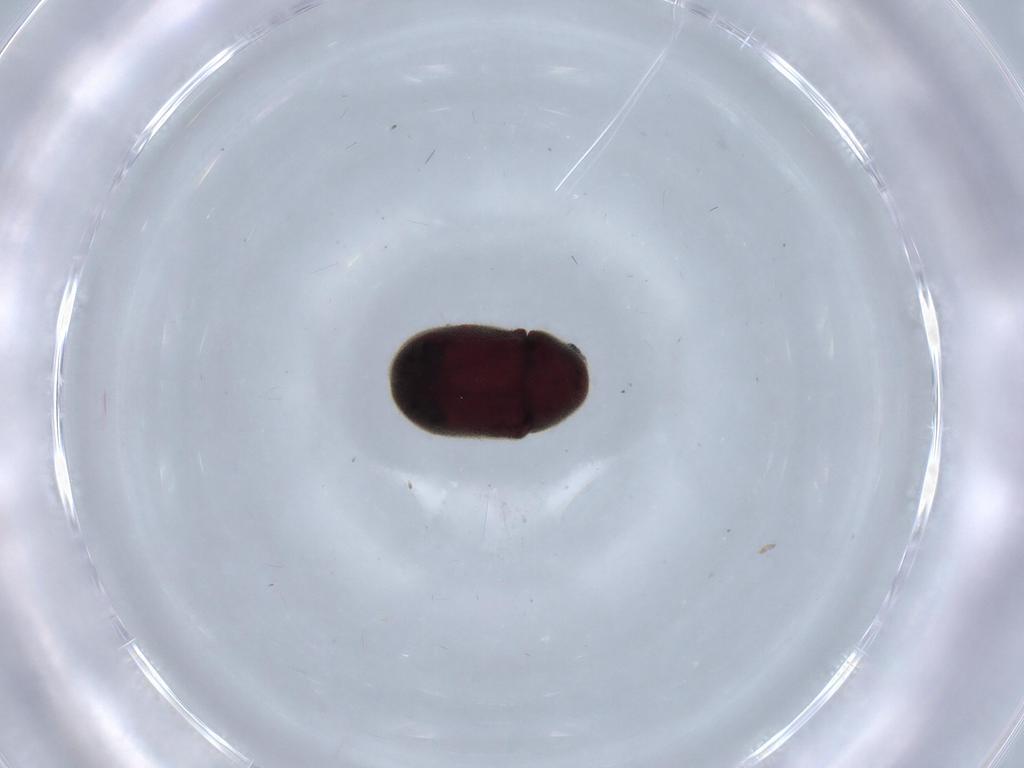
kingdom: Animalia
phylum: Arthropoda
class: Insecta
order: Coleoptera
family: Ptinidae
